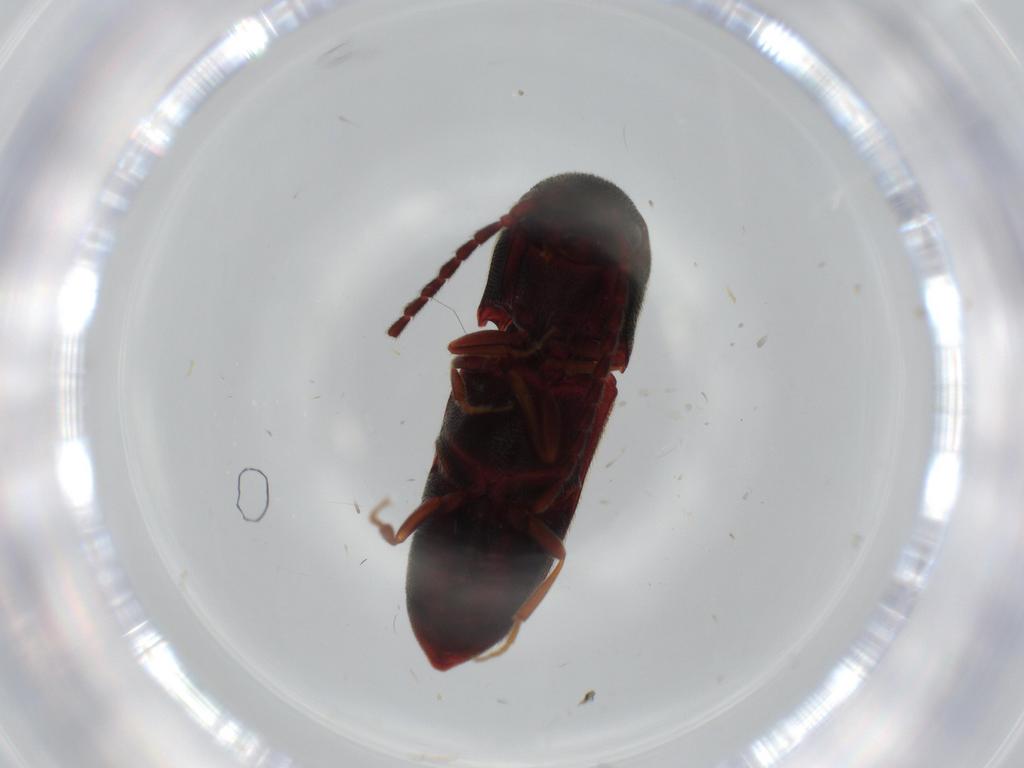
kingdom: Animalia
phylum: Arthropoda
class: Insecta
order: Coleoptera
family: Eucnemidae
